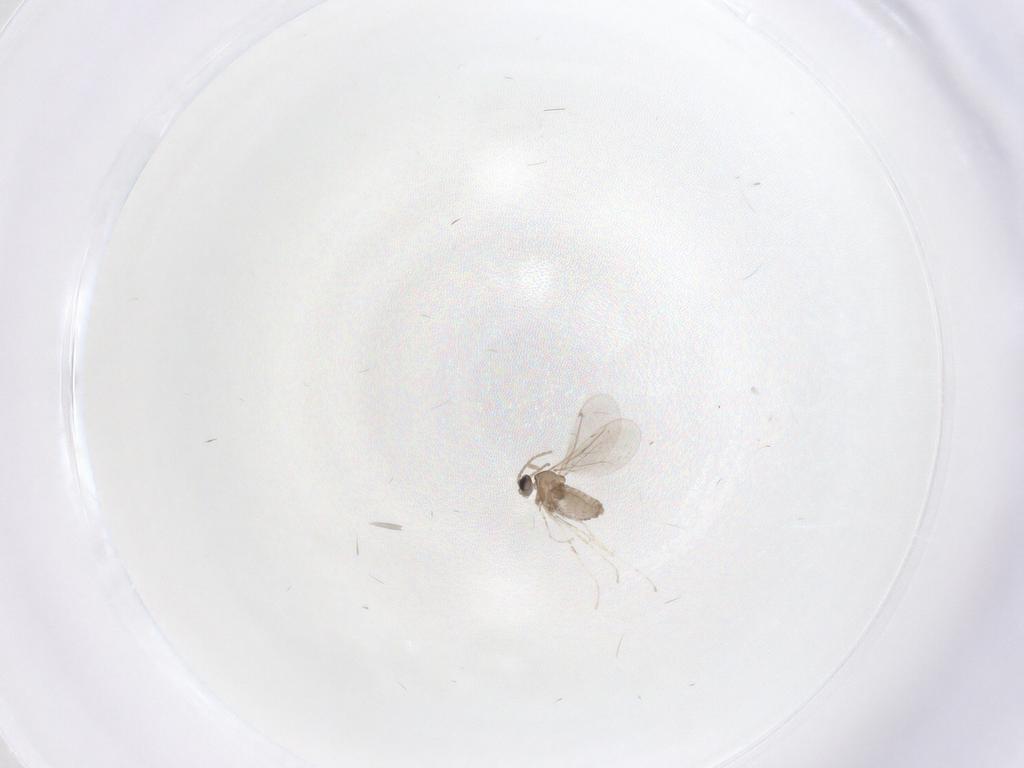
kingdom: Animalia
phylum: Arthropoda
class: Insecta
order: Diptera
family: Cecidomyiidae
